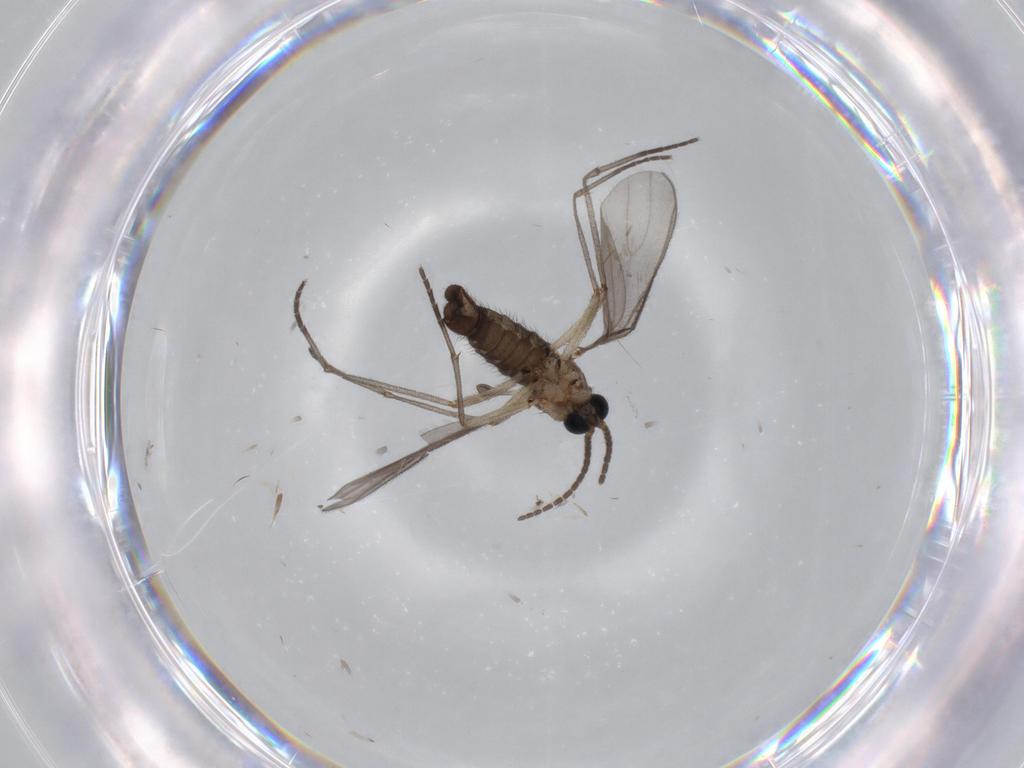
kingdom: Animalia
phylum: Arthropoda
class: Insecta
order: Diptera
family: Sciaridae
